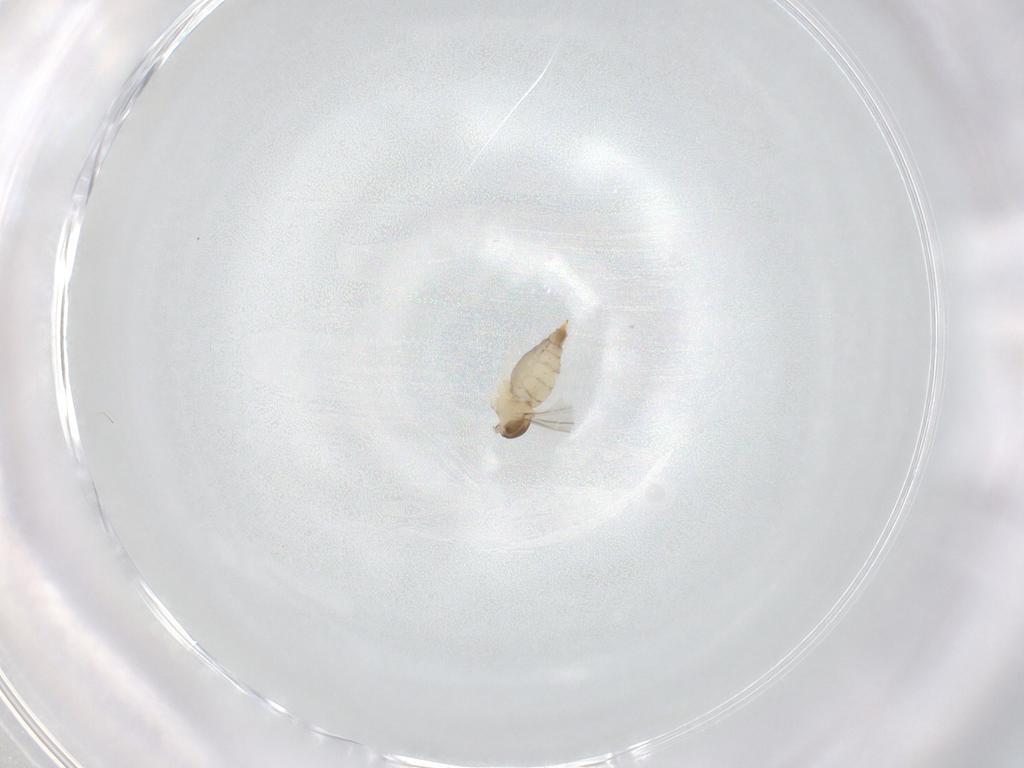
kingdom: Animalia
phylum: Arthropoda
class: Insecta
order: Diptera
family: Cecidomyiidae
